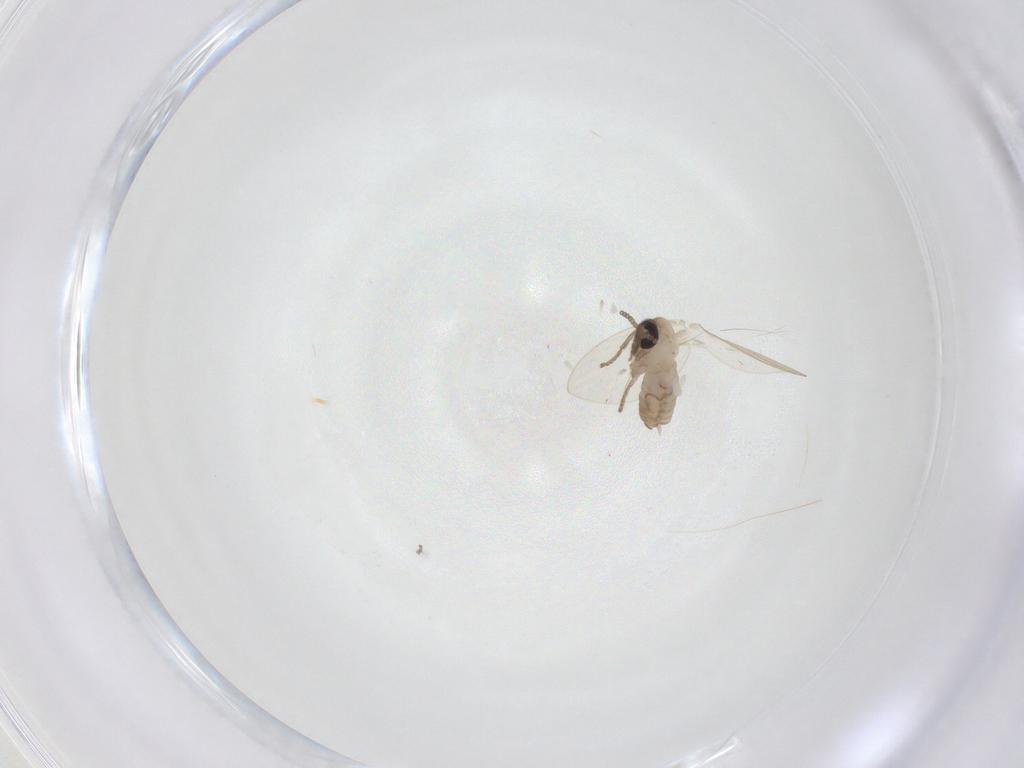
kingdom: Animalia
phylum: Arthropoda
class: Insecta
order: Diptera
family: Psychodidae
